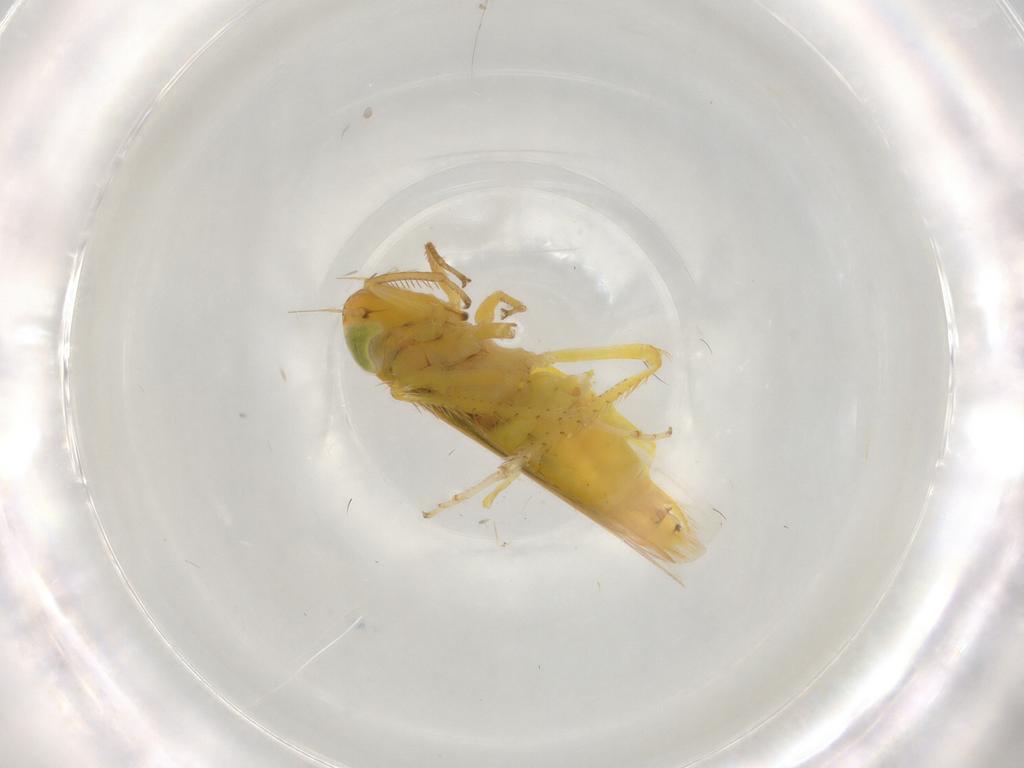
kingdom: Animalia
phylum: Arthropoda
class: Insecta
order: Hemiptera
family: Cicadellidae
